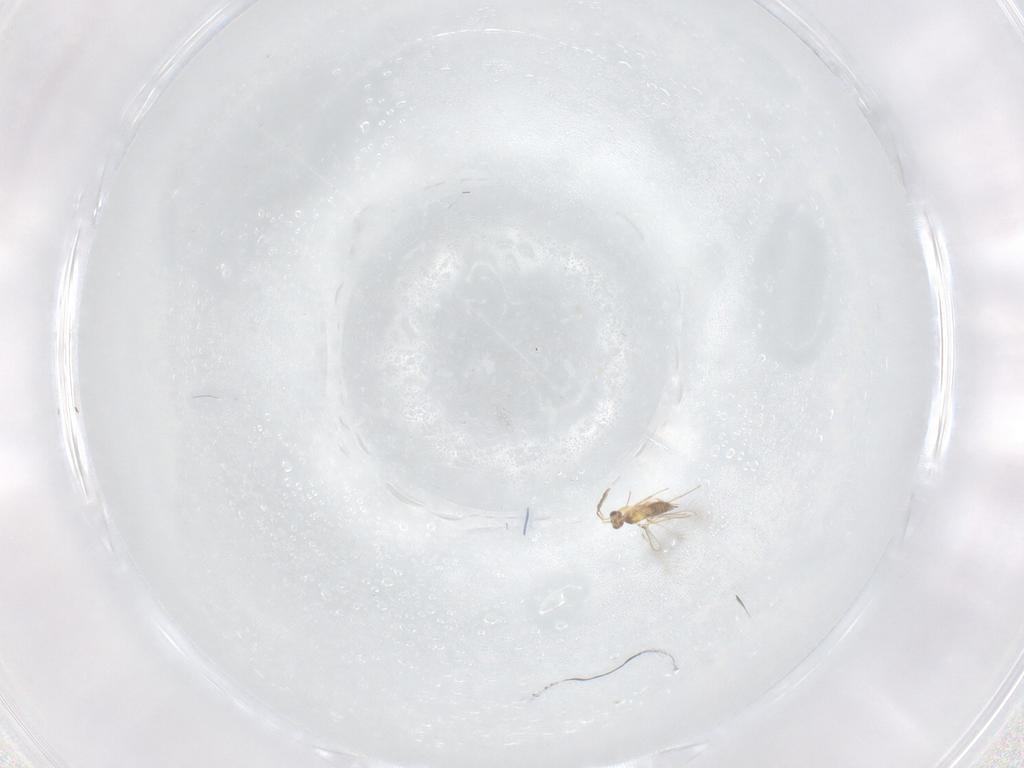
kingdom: Animalia
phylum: Arthropoda
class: Insecta
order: Hymenoptera
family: Mymaridae
